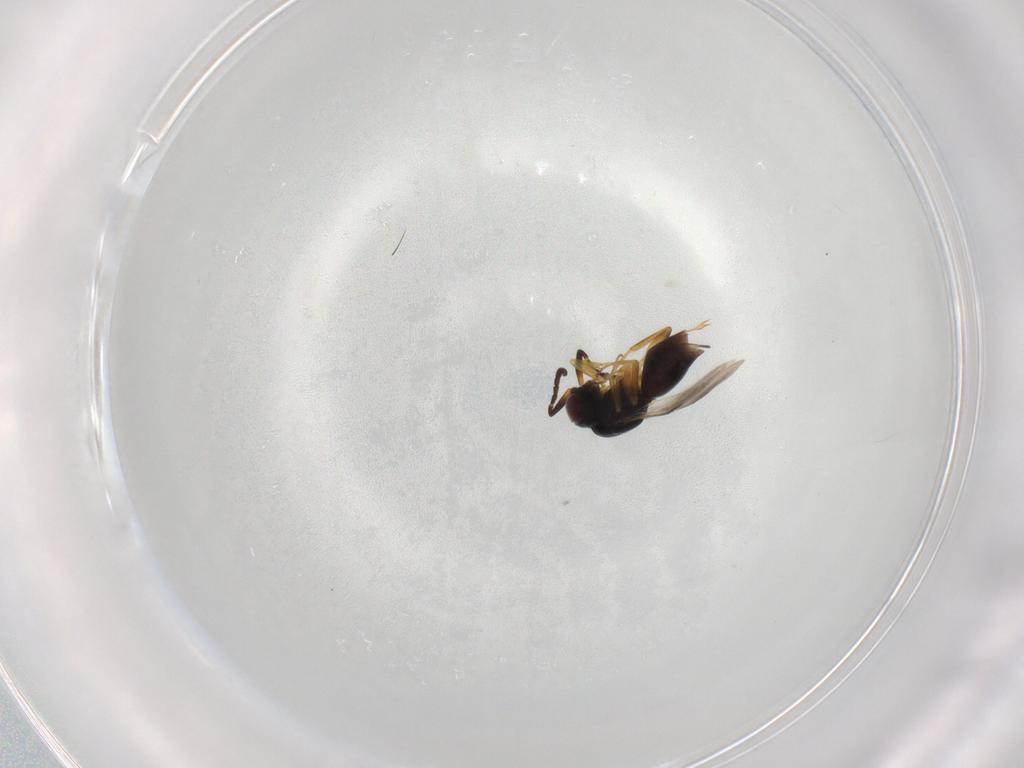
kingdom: Animalia
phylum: Arthropoda
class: Insecta
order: Hymenoptera
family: Megaspilidae
